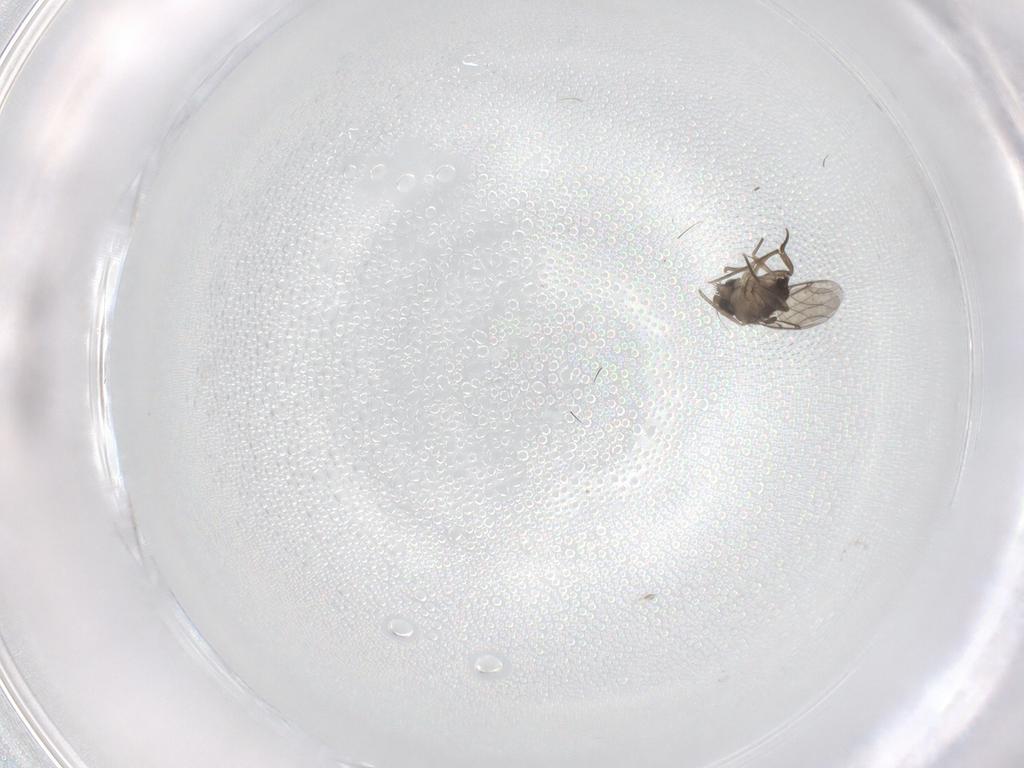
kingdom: Animalia
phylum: Arthropoda
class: Insecta
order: Diptera
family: Phoridae
